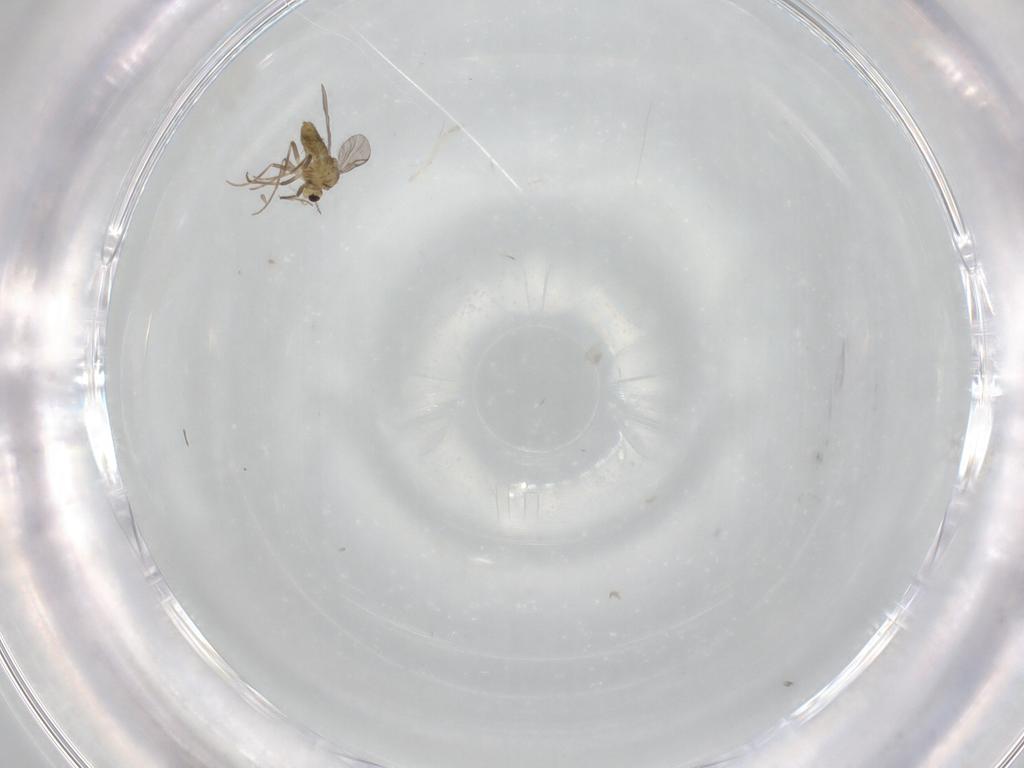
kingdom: Animalia
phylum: Arthropoda
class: Insecta
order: Diptera
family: Chironomidae
